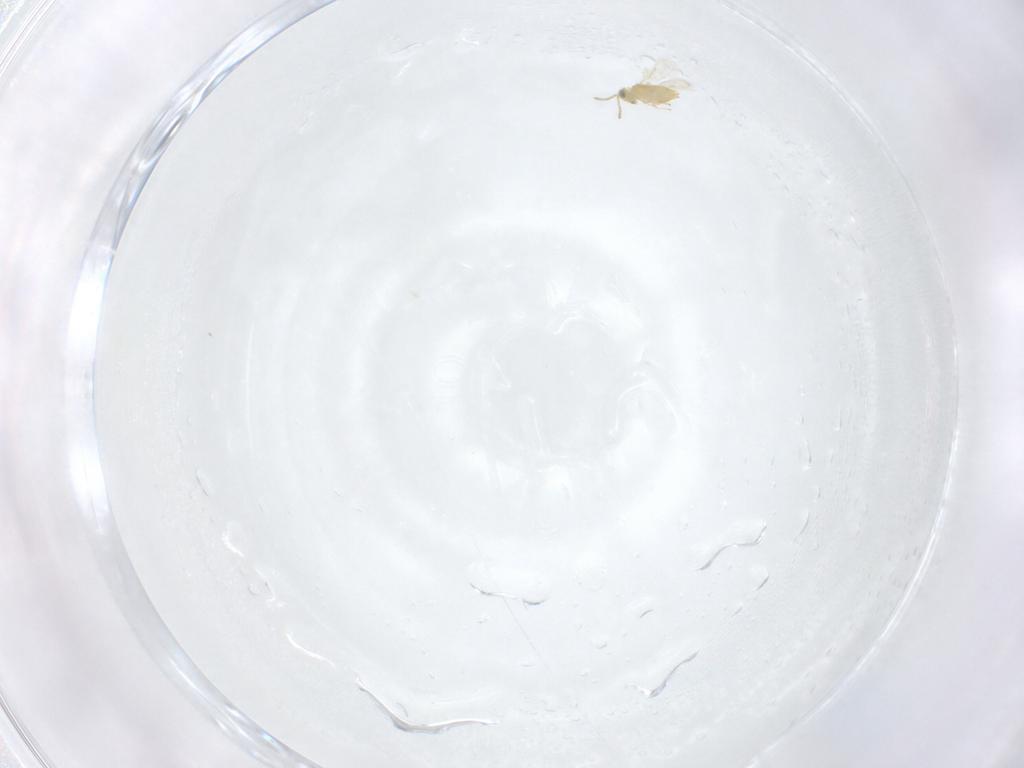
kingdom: Animalia
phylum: Arthropoda
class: Insecta
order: Hymenoptera
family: Aphelinidae
